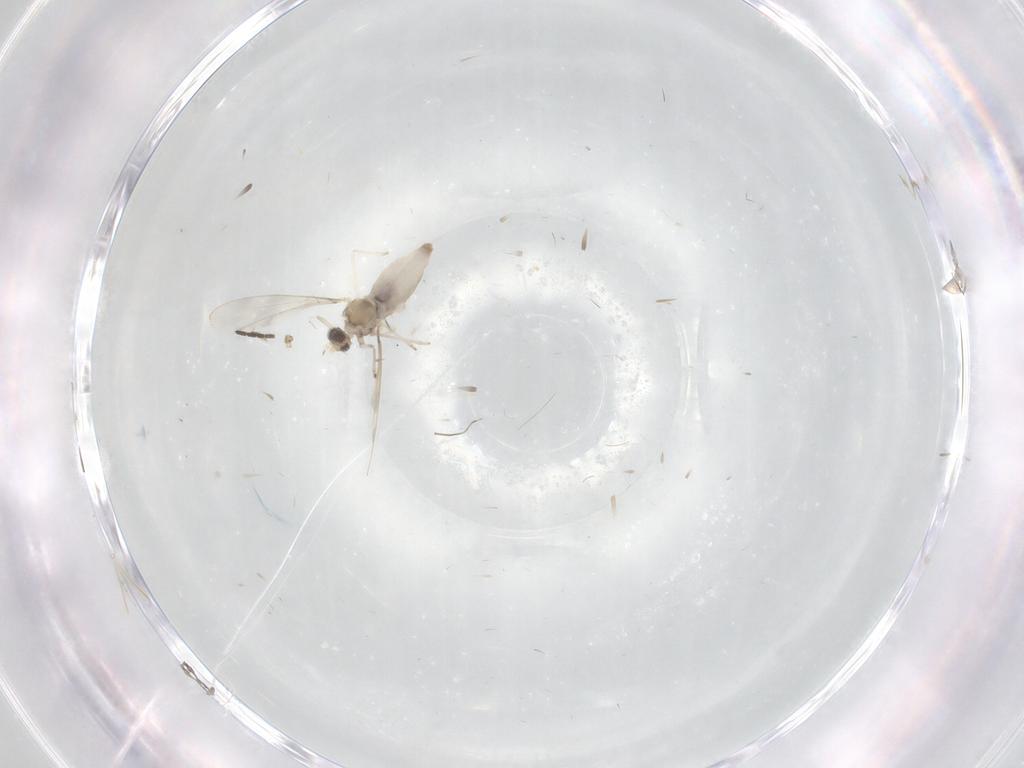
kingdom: Animalia
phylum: Arthropoda
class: Insecta
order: Diptera
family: Cecidomyiidae
